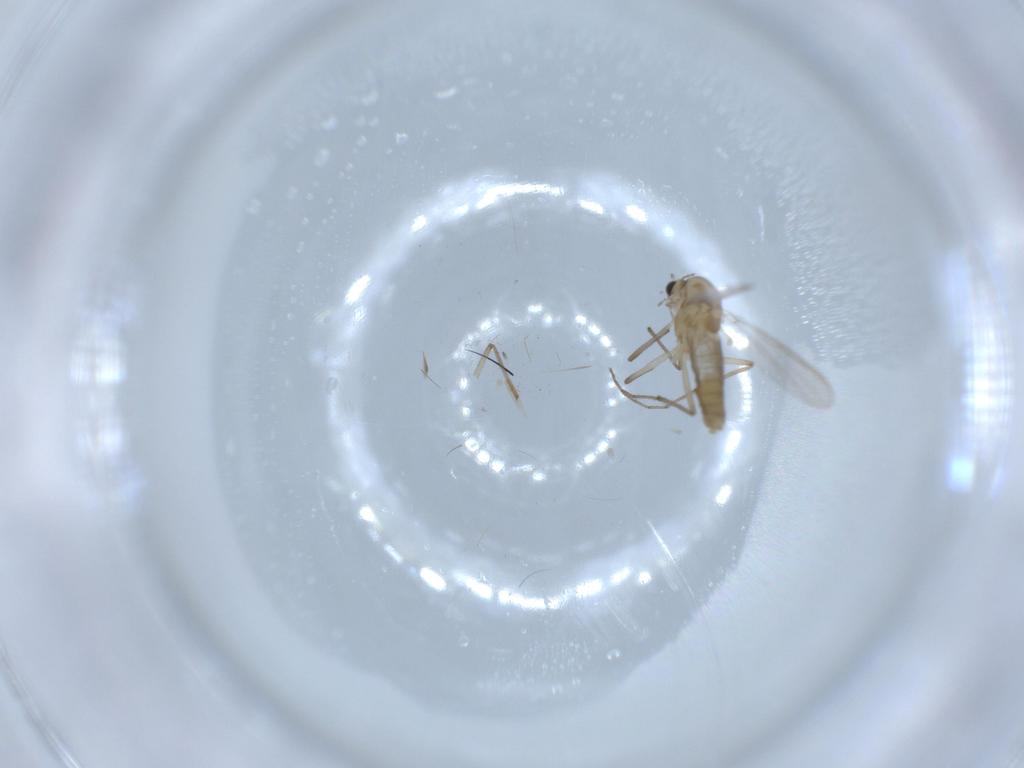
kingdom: Animalia
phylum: Arthropoda
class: Insecta
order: Diptera
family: Chironomidae
